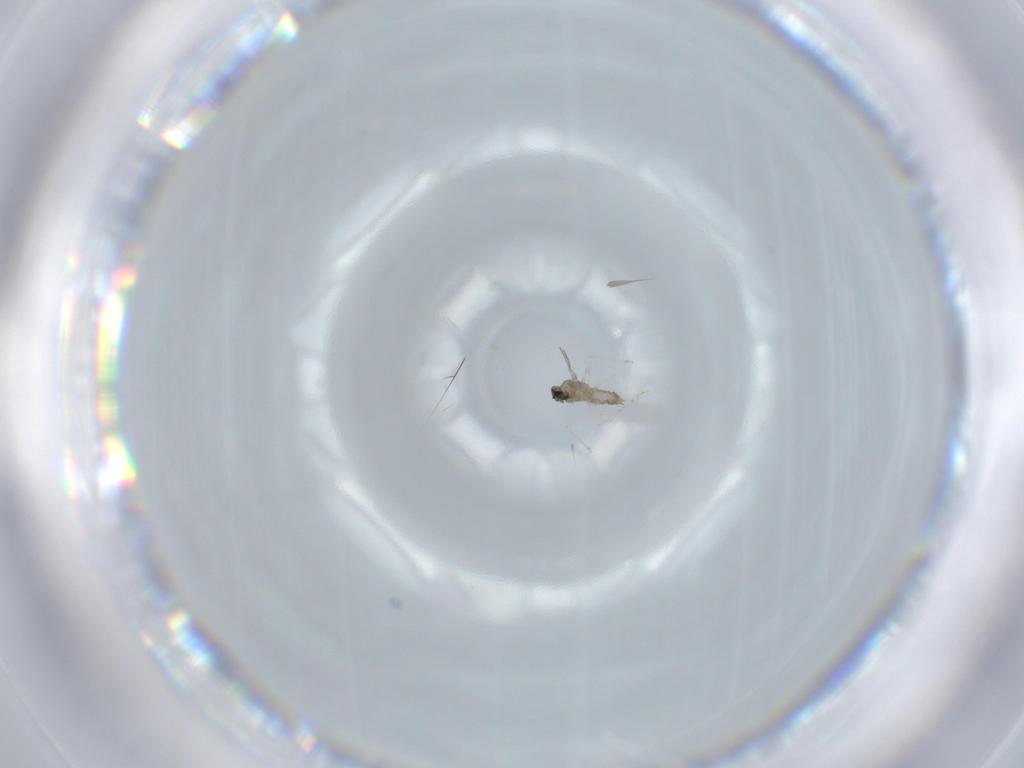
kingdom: Animalia
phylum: Arthropoda
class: Insecta
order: Diptera
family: Cecidomyiidae
